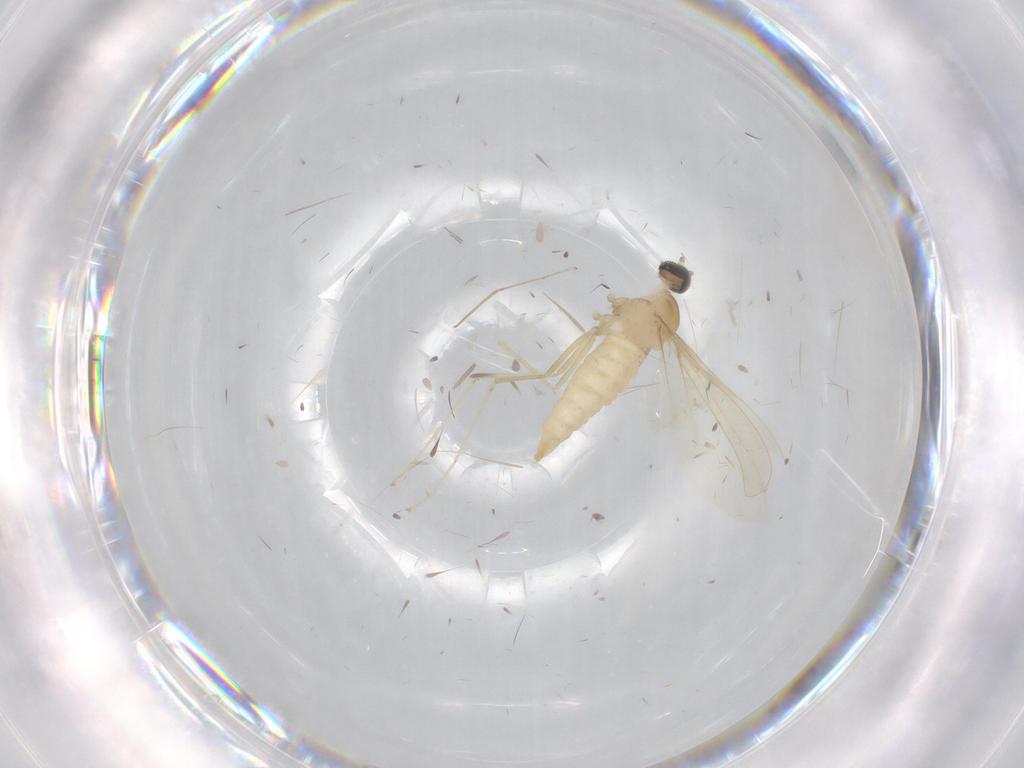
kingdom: Animalia
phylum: Arthropoda
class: Insecta
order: Diptera
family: Cecidomyiidae
